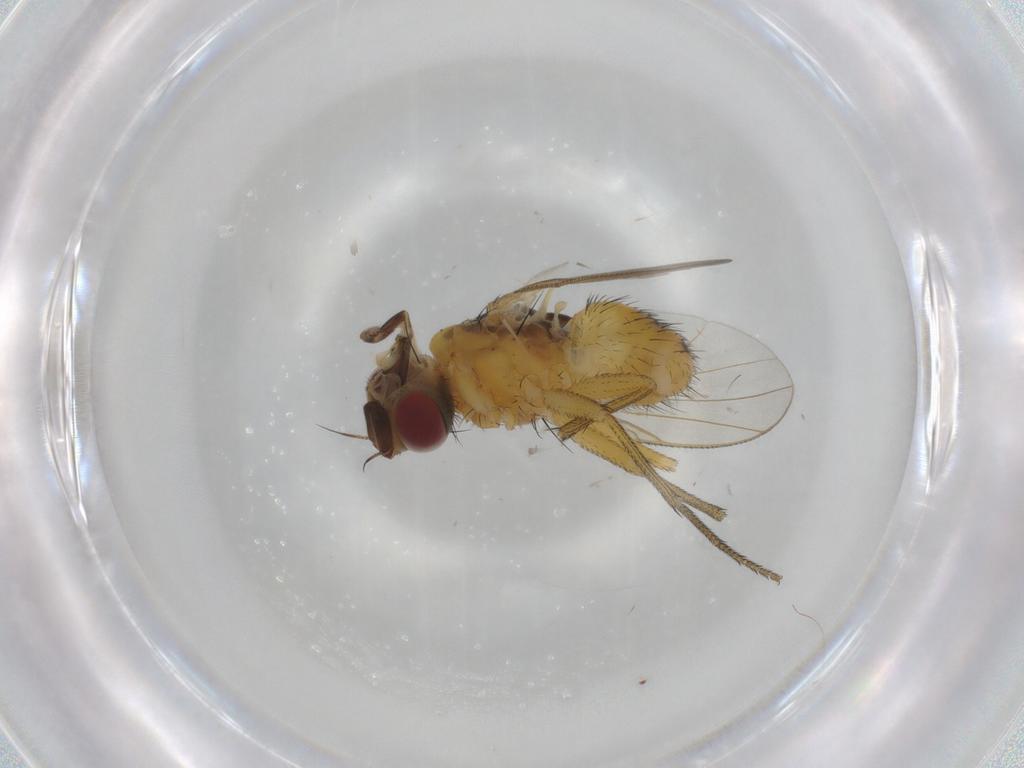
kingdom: Animalia
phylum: Arthropoda
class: Insecta
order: Diptera
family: Muscidae
